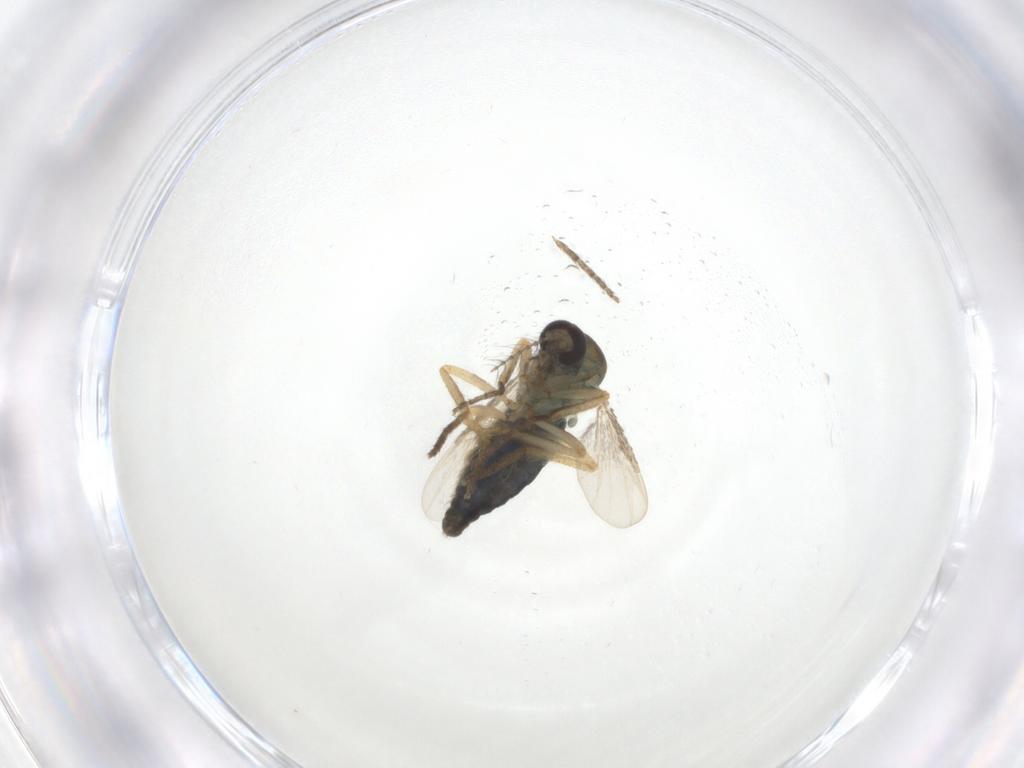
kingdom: Animalia
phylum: Arthropoda
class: Insecta
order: Diptera
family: Ceratopogonidae
